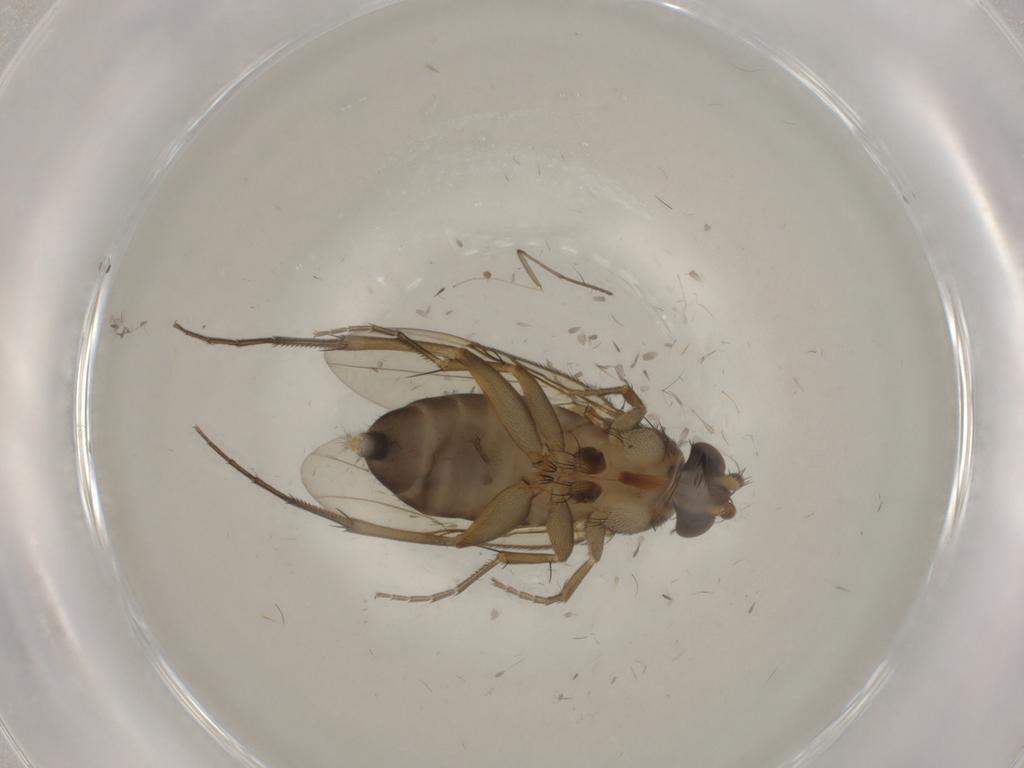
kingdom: Animalia
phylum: Arthropoda
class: Insecta
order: Diptera
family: Phoridae
